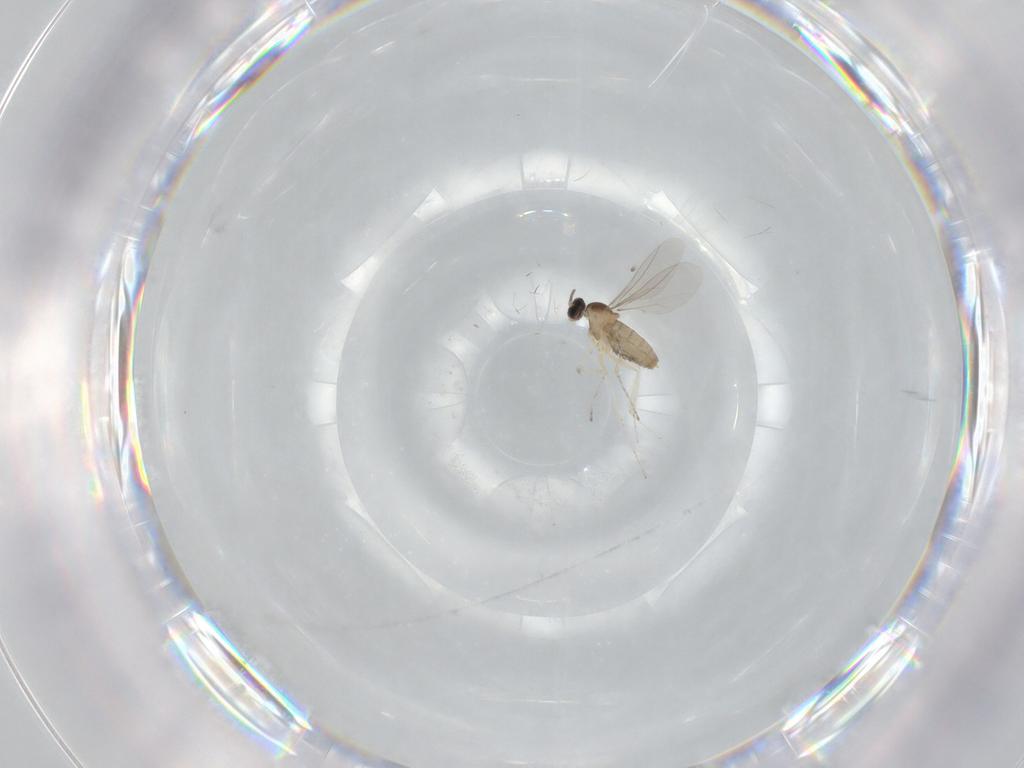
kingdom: Animalia
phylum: Arthropoda
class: Insecta
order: Diptera
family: Cecidomyiidae
